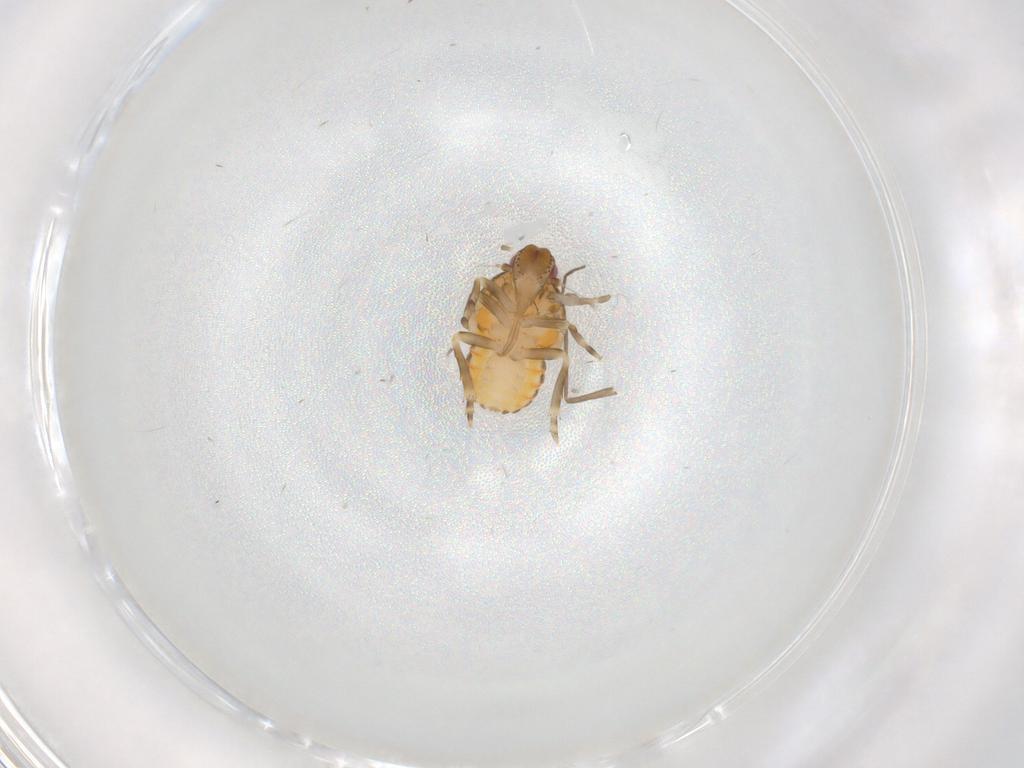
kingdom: Animalia
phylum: Arthropoda
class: Insecta
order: Hemiptera
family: Flatidae
